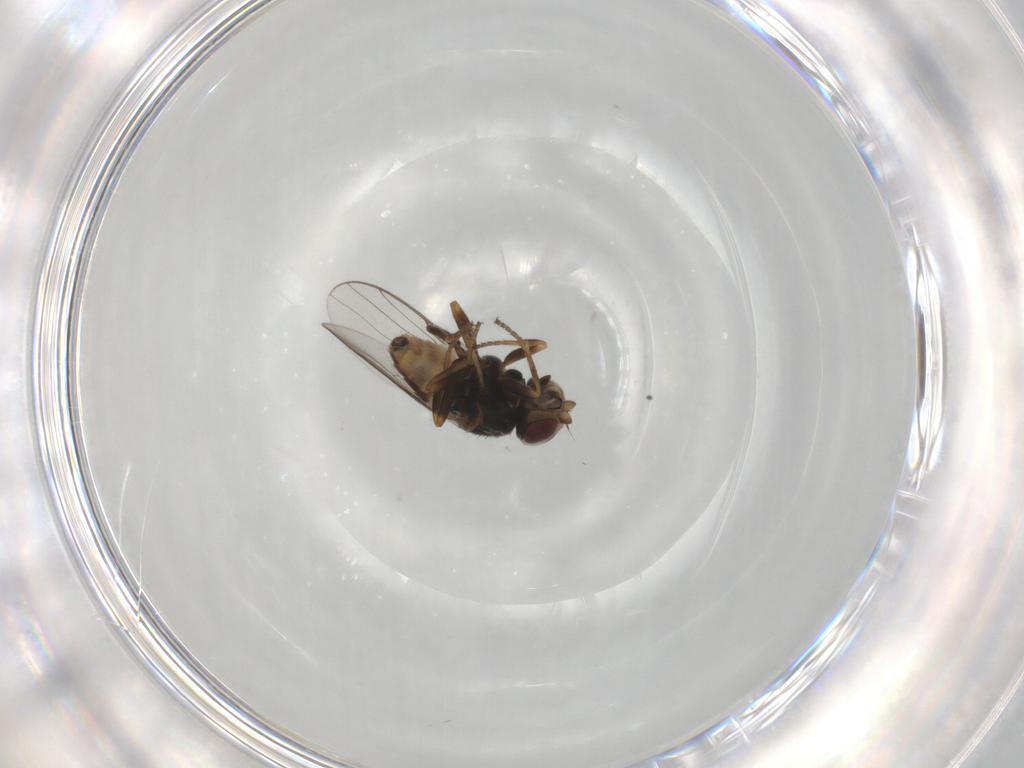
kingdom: Animalia
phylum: Arthropoda
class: Insecta
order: Diptera
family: Chloropidae
